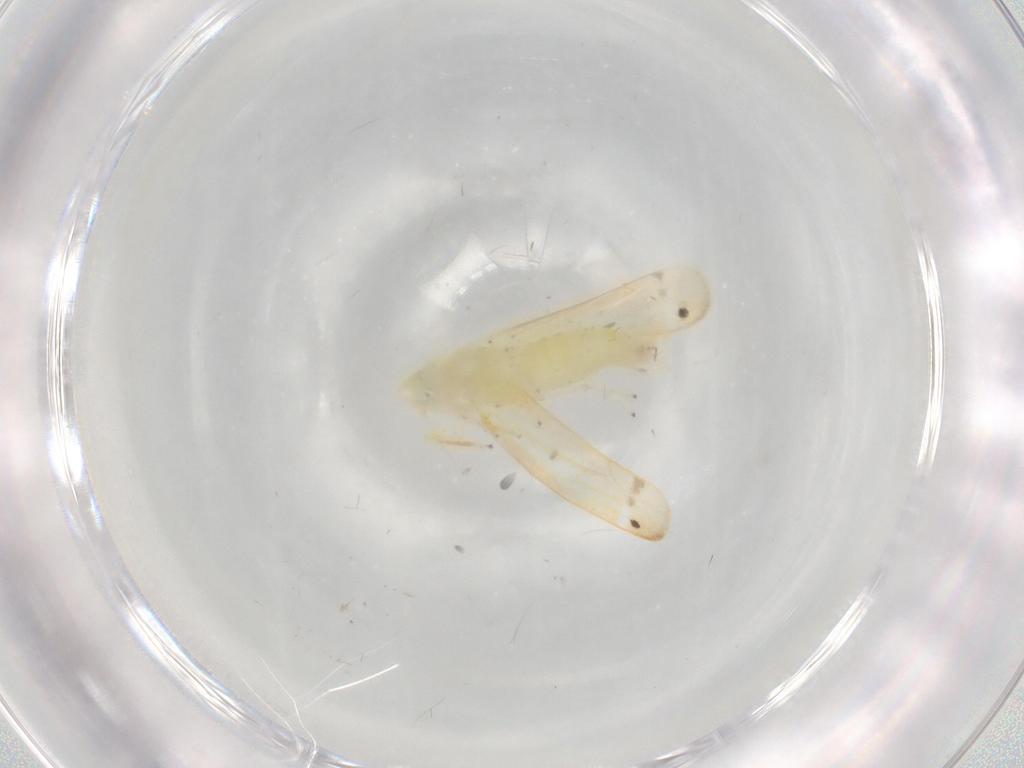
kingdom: Animalia
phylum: Arthropoda
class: Insecta
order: Hemiptera
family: Cicadellidae
